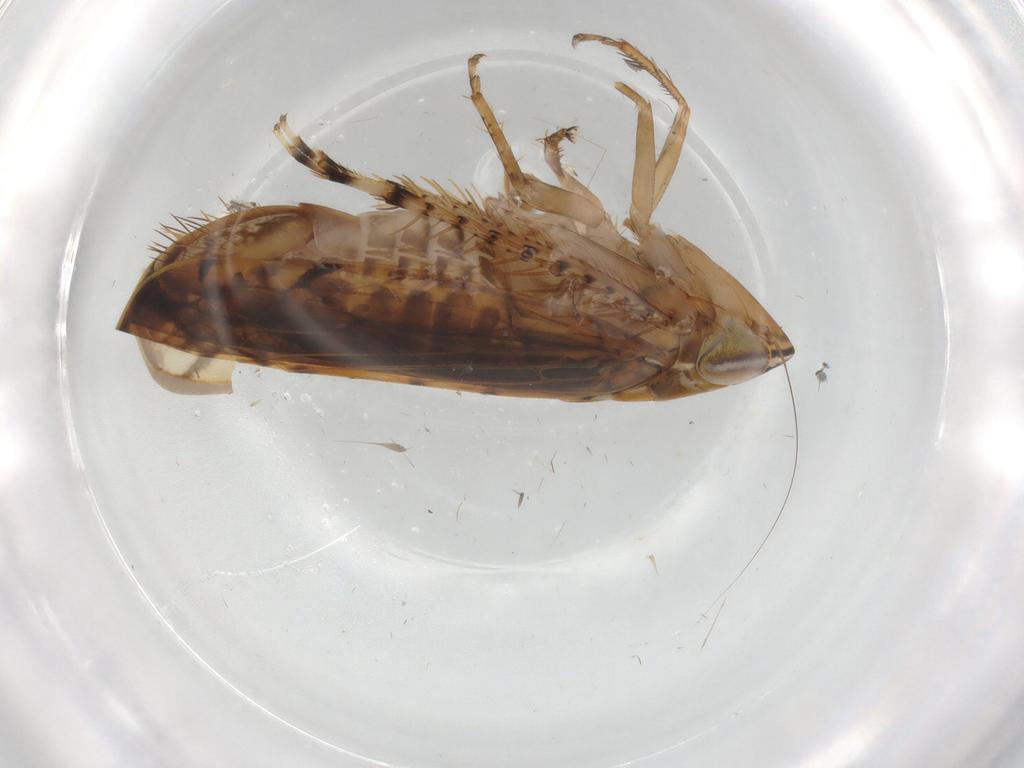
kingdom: Animalia
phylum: Arthropoda
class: Insecta
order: Hemiptera
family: Cicadellidae
